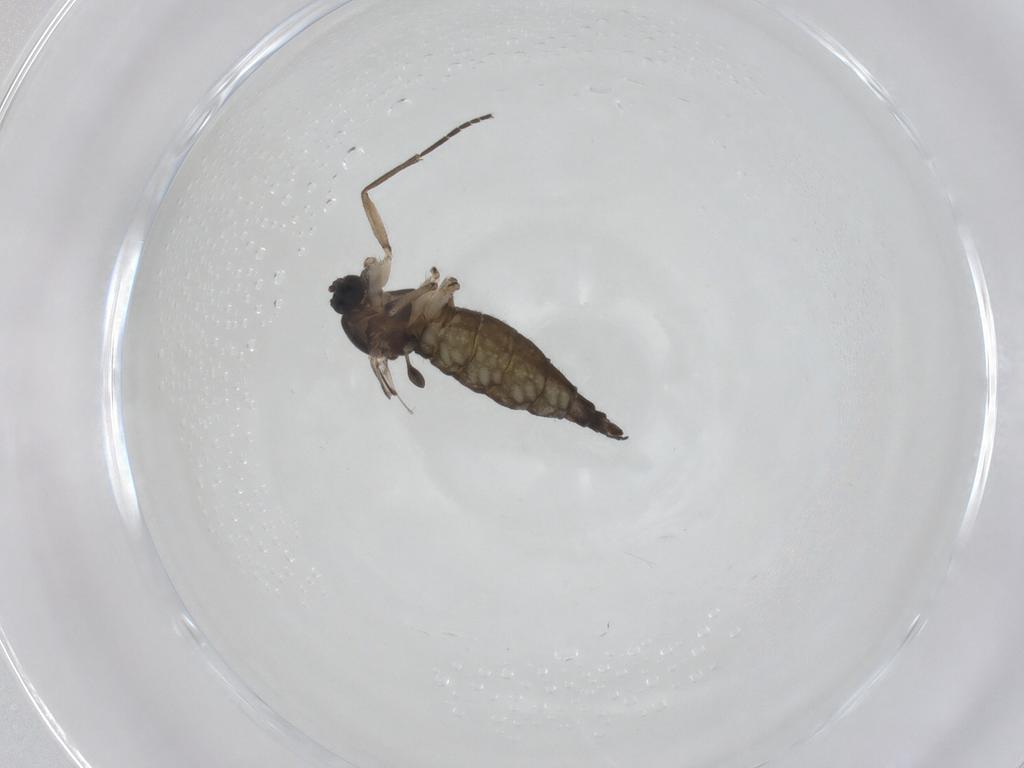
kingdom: Animalia
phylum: Arthropoda
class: Insecta
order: Diptera
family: Sciaridae
